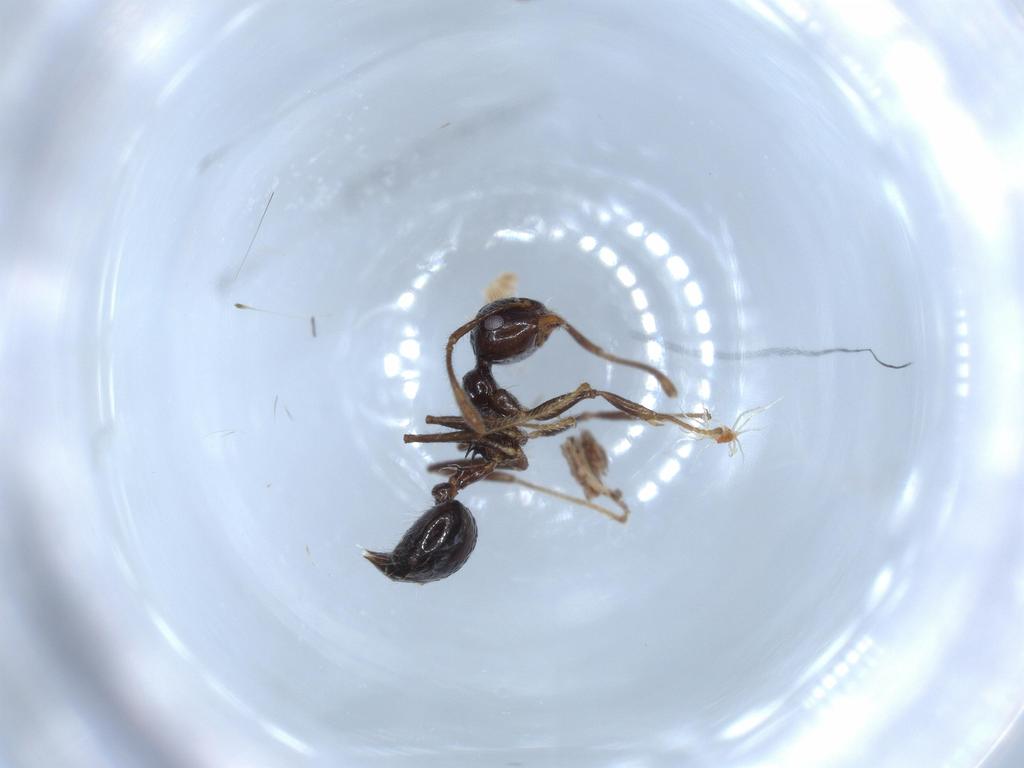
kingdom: Animalia
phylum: Arthropoda
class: Insecta
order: Hymenoptera
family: Formicidae
